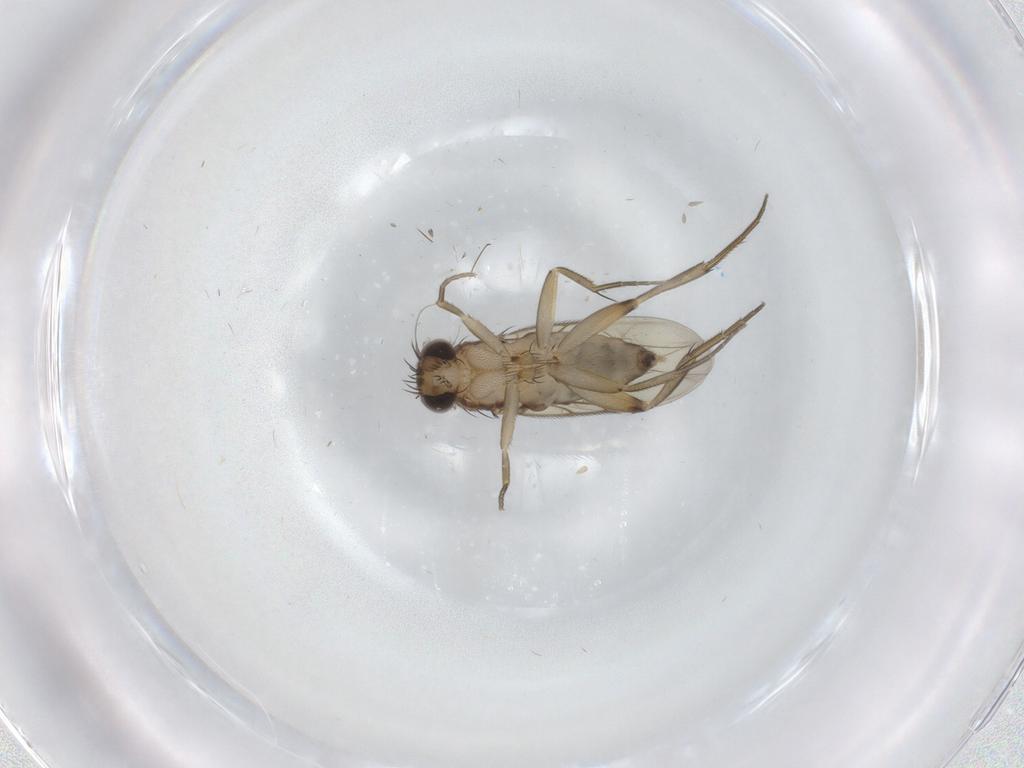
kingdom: Animalia
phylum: Arthropoda
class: Insecta
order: Diptera
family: Phoridae
